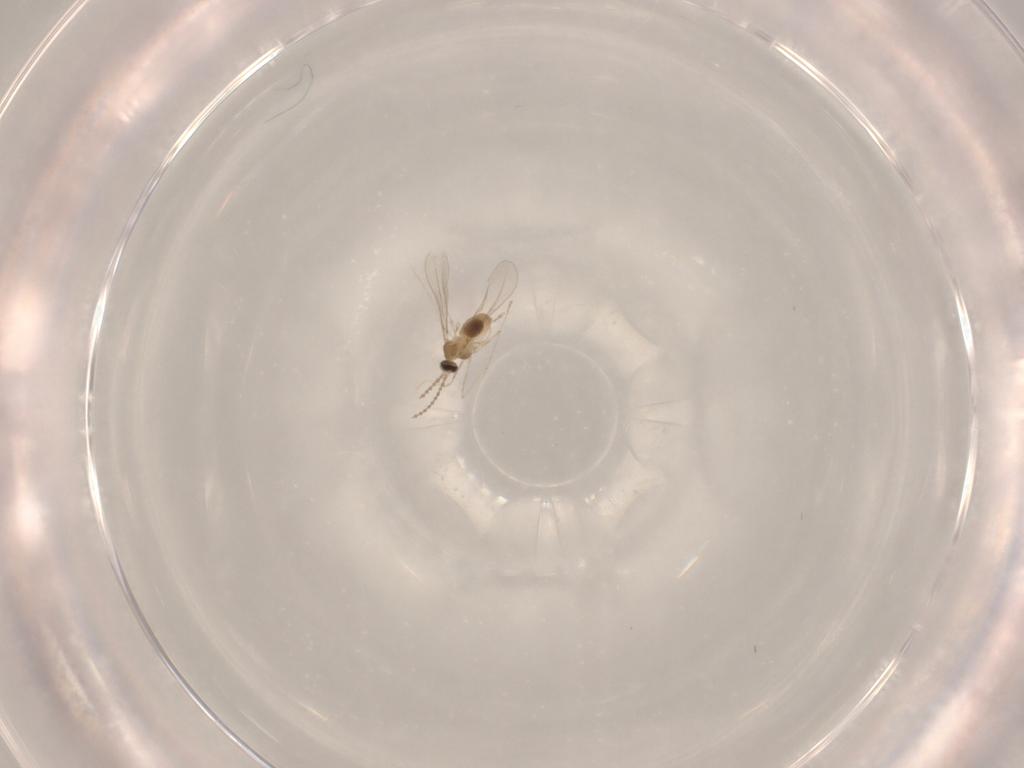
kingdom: Animalia
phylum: Arthropoda
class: Insecta
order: Diptera
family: Cecidomyiidae
